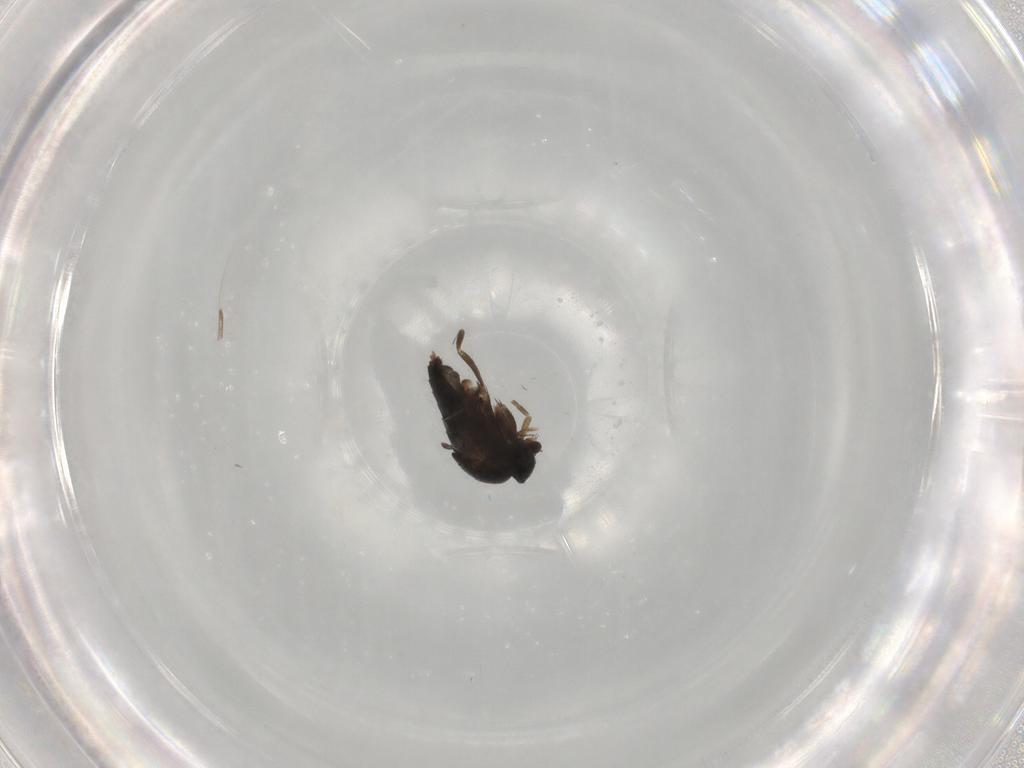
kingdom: Animalia
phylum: Arthropoda
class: Insecta
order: Diptera
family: Phoridae
